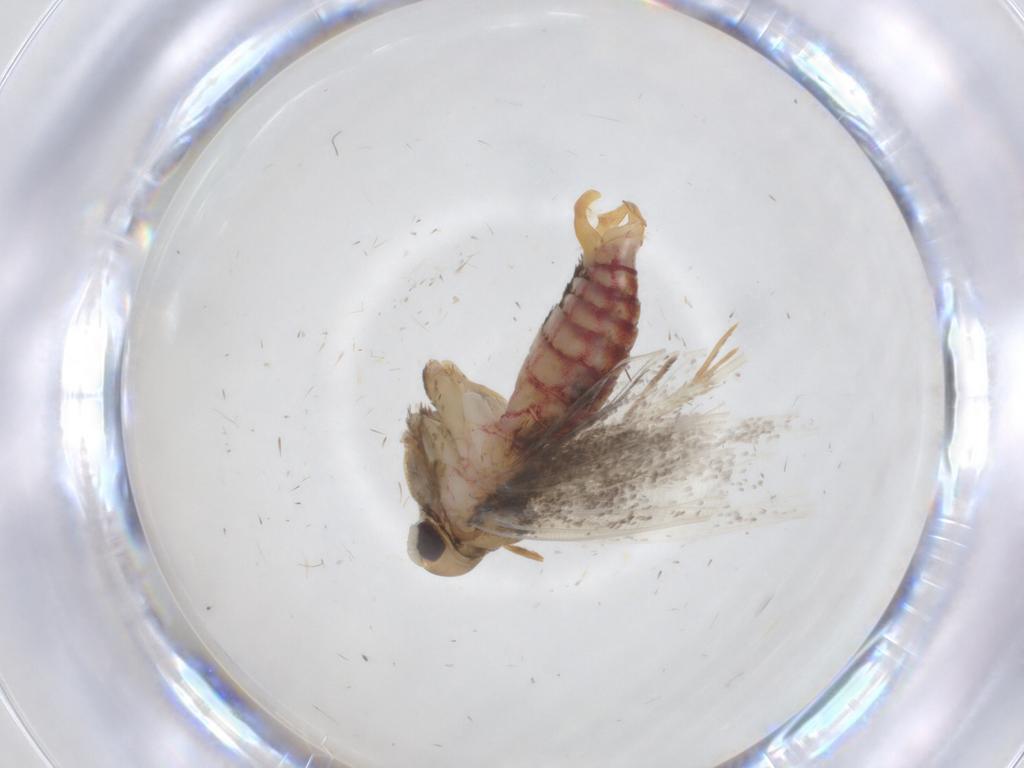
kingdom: Animalia
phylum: Arthropoda
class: Insecta
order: Lepidoptera
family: Lecithoceridae
